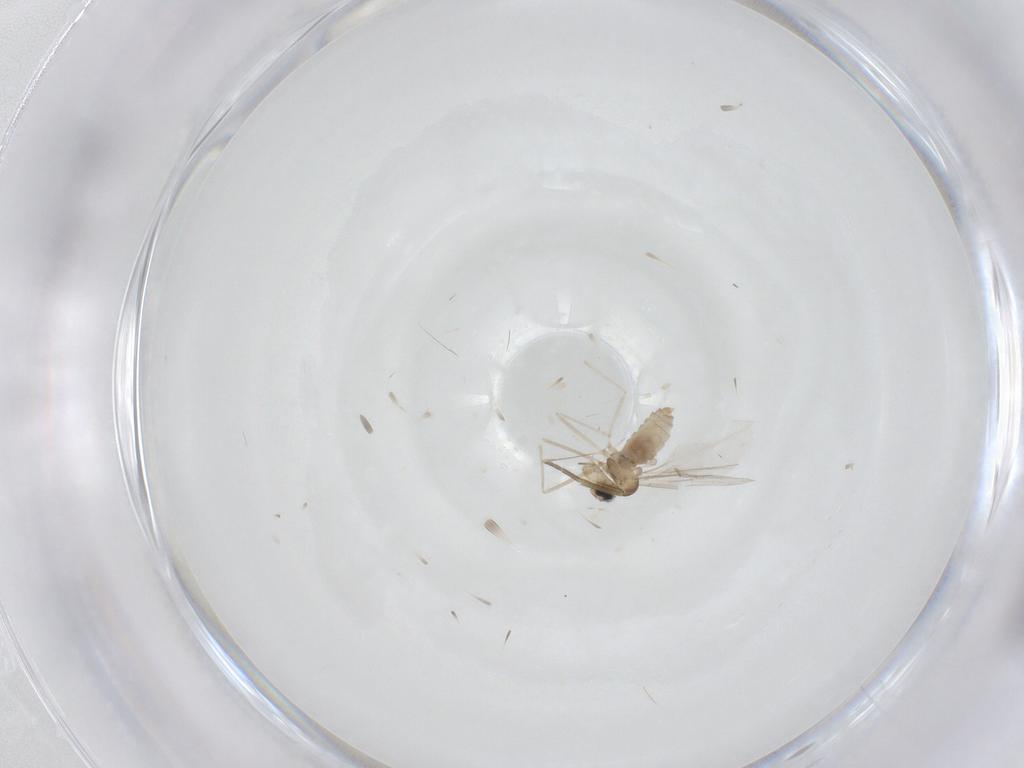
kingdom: Animalia
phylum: Arthropoda
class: Insecta
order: Diptera
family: Cecidomyiidae
